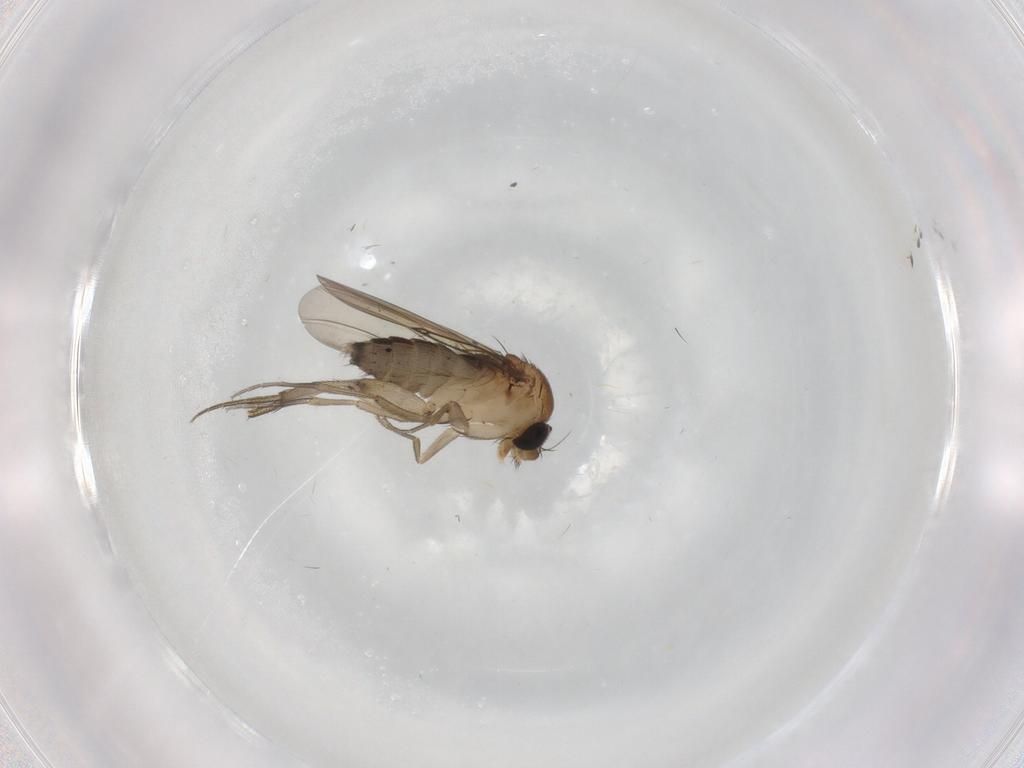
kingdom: Animalia
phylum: Arthropoda
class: Insecta
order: Diptera
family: Phoridae
